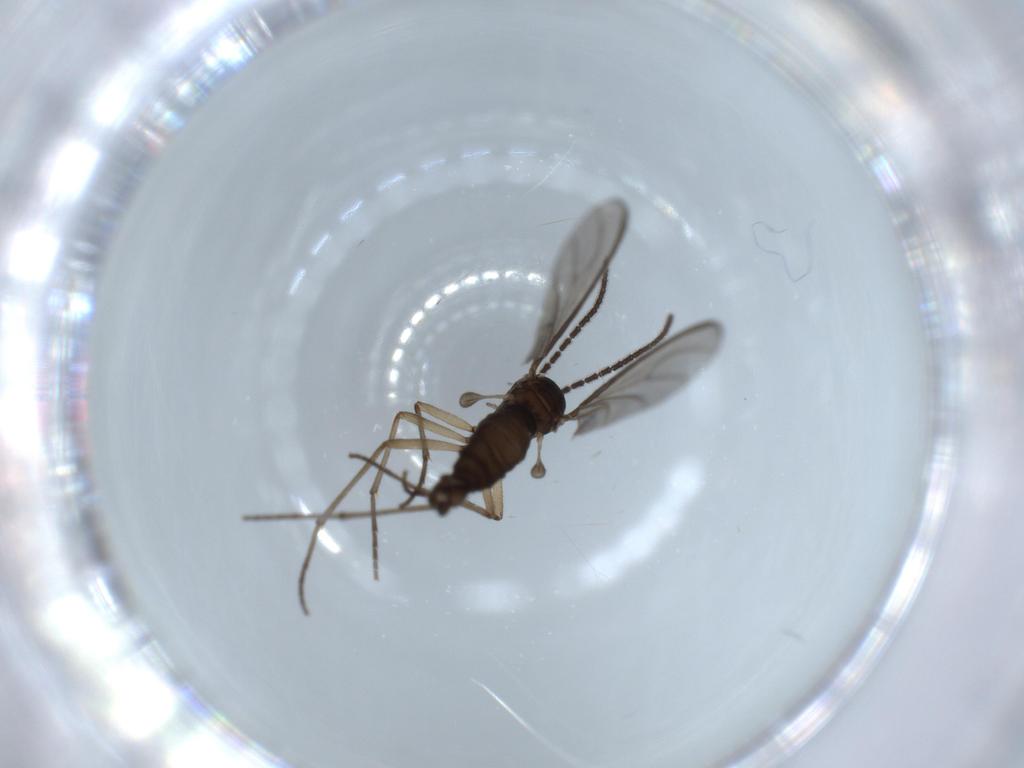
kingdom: Animalia
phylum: Arthropoda
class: Insecta
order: Diptera
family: Sciaridae
